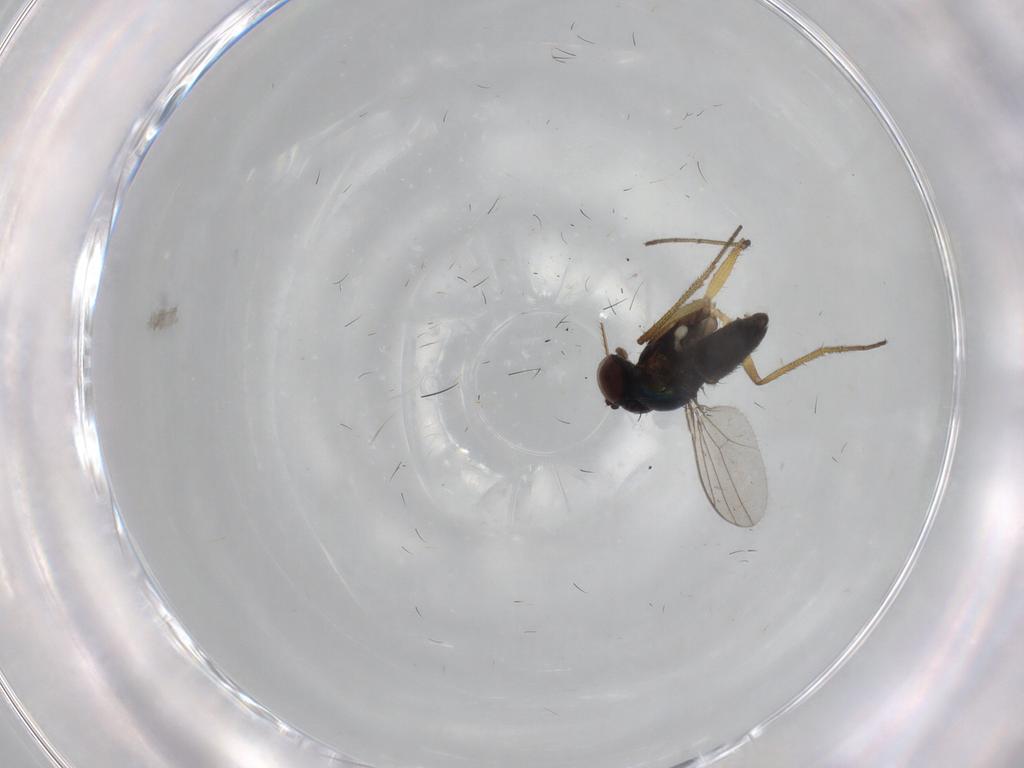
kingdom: Animalia
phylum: Arthropoda
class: Insecta
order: Diptera
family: Dolichopodidae
